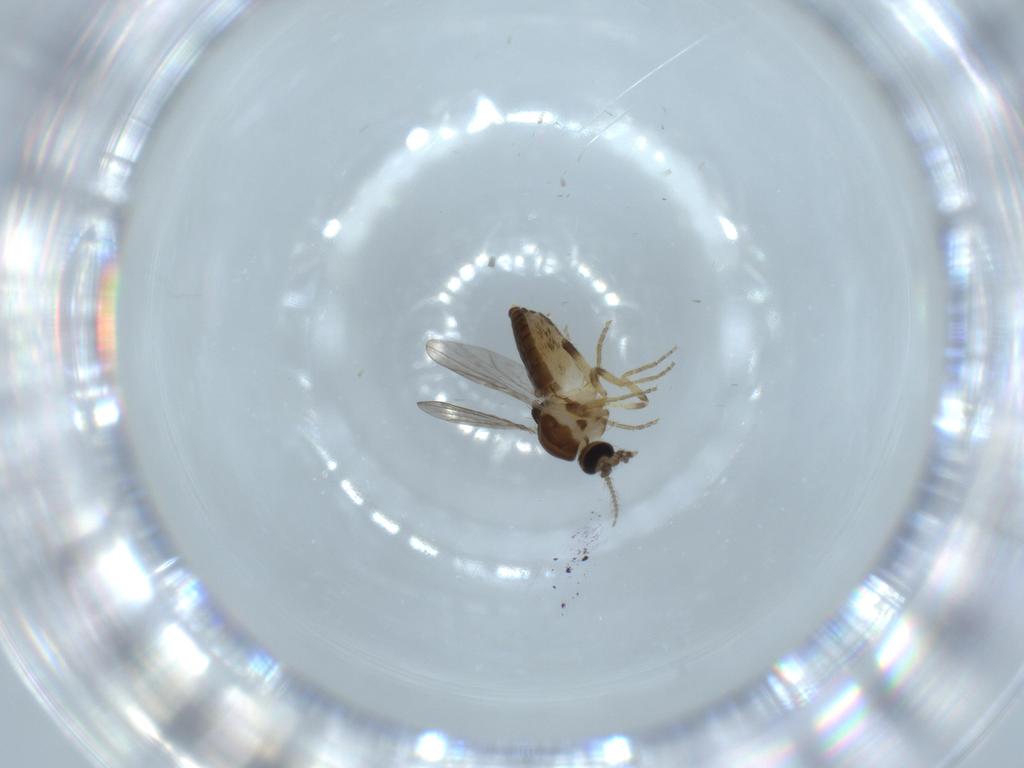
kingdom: Animalia
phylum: Arthropoda
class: Insecta
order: Diptera
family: Ceratopogonidae
